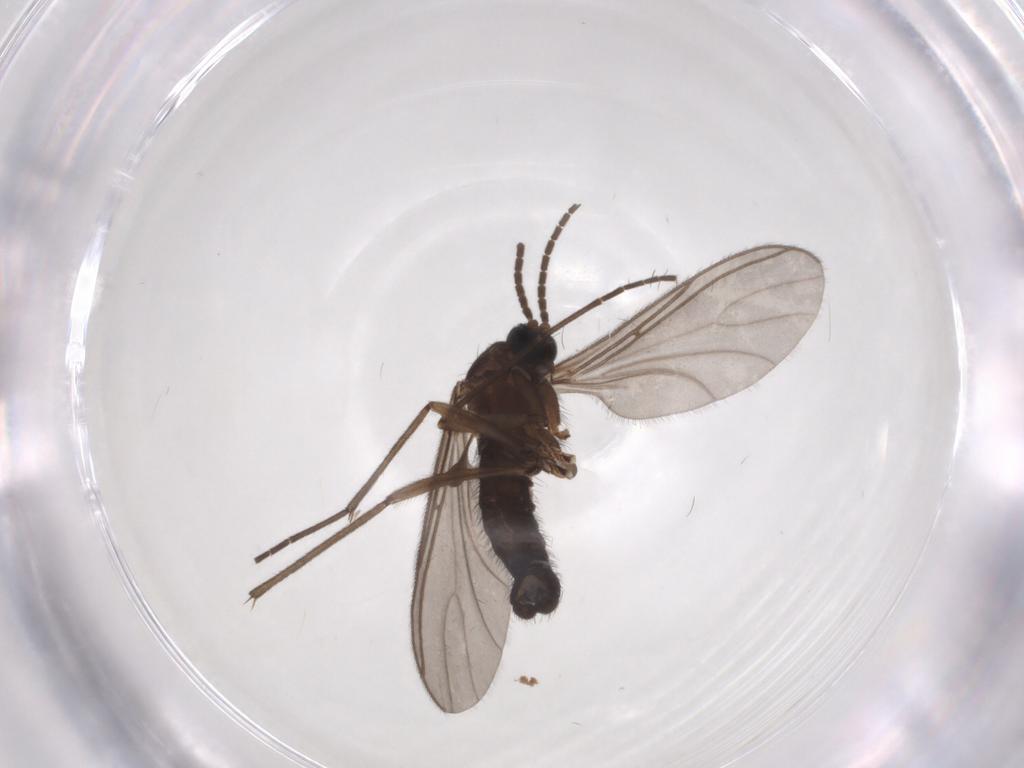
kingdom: Animalia
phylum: Arthropoda
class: Insecta
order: Diptera
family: Sciaridae
